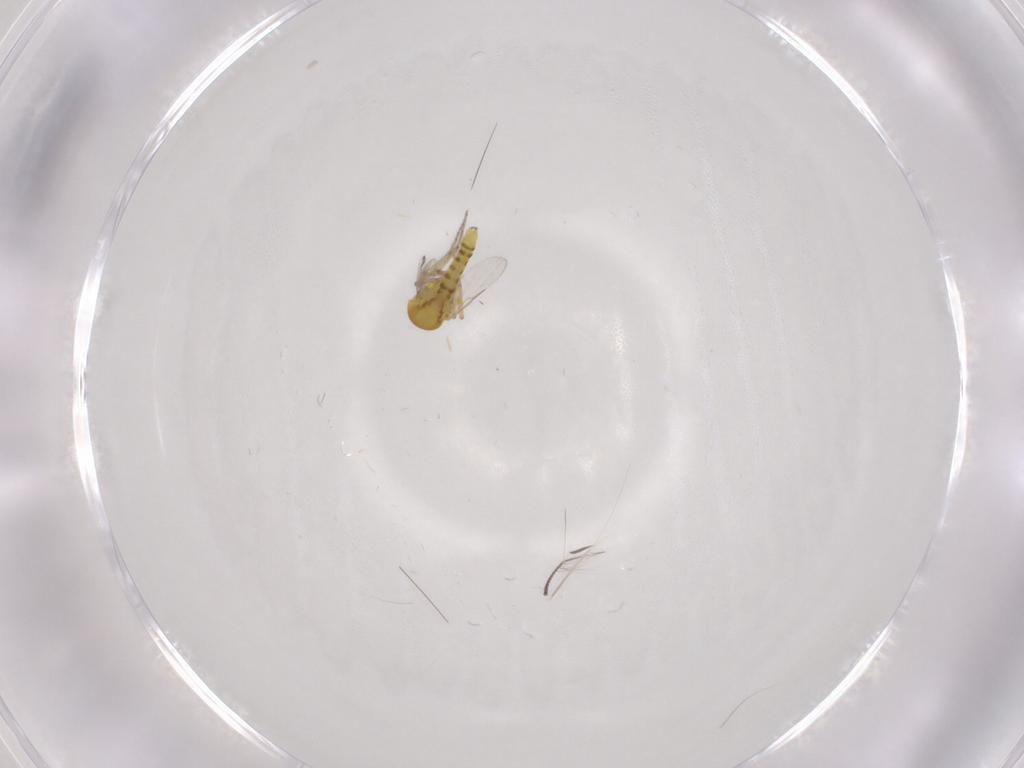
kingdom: Animalia
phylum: Arthropoda
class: Insecta
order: Diptera
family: Ceratopogonidae
